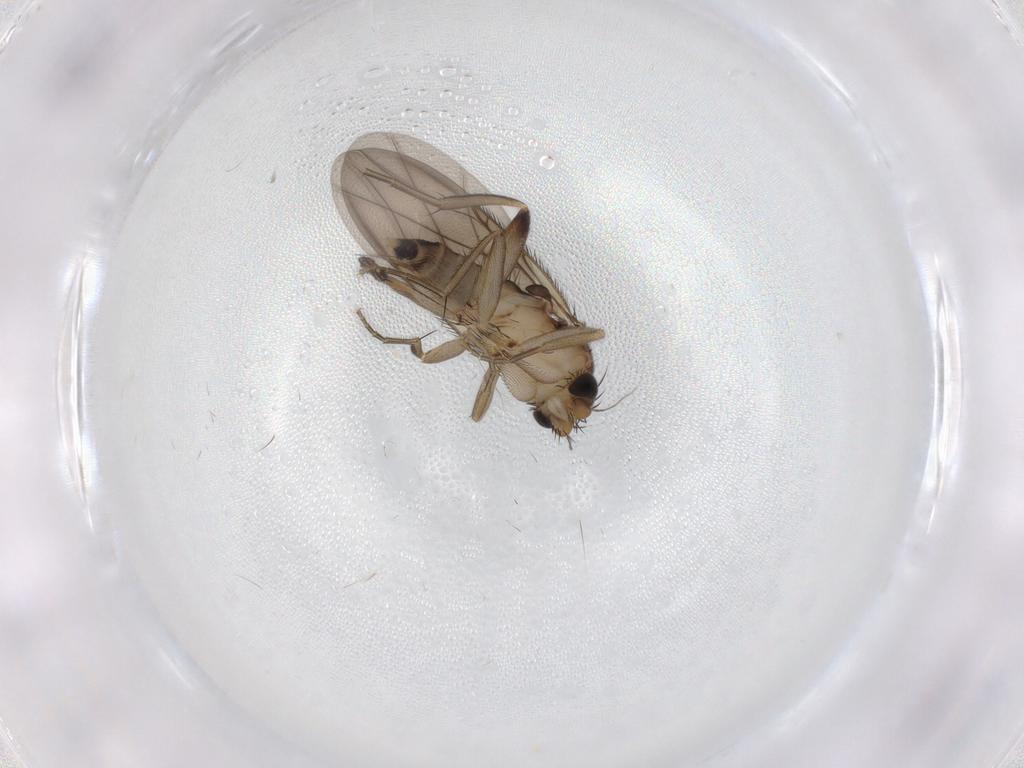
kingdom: Animalia
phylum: Arthropoda
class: Insecta
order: Diptera
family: Phoridae
